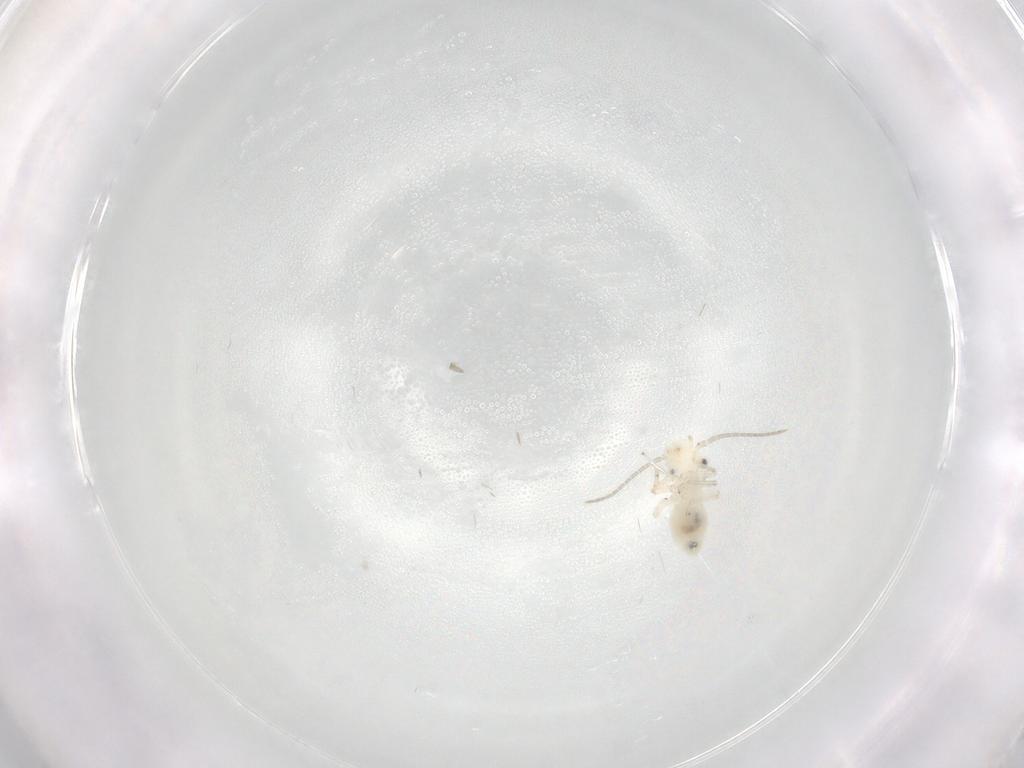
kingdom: Animalia
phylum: Arthropoda
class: Insecta
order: Psocodea
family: Caeciliusidae
